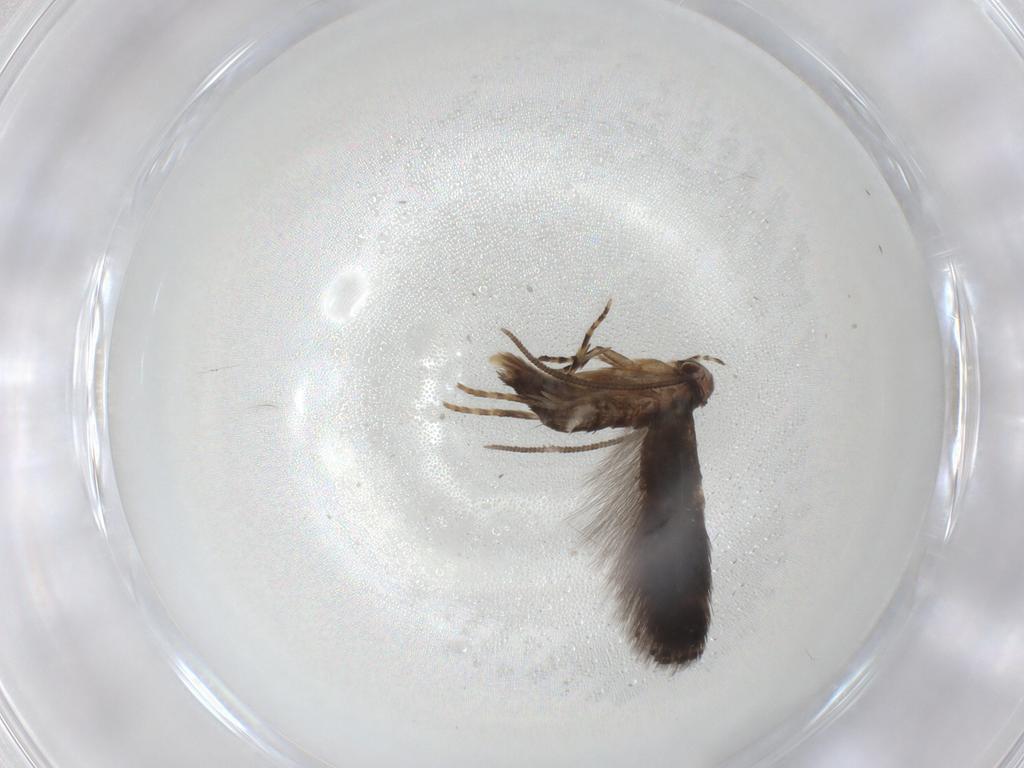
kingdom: Animalia
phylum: Arthropoda
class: Insecta
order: Lepidoptera
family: Elachistidae
